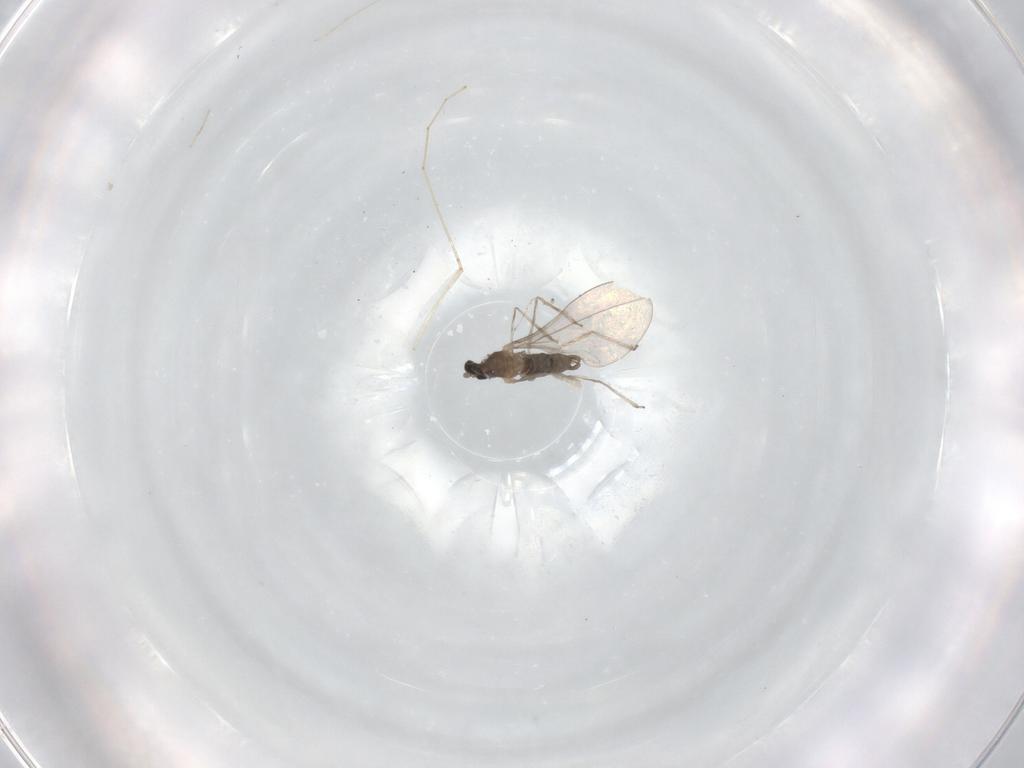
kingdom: Animalia
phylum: Arthropoda
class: Insecta
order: Diptera
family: Cecidomyiidae
